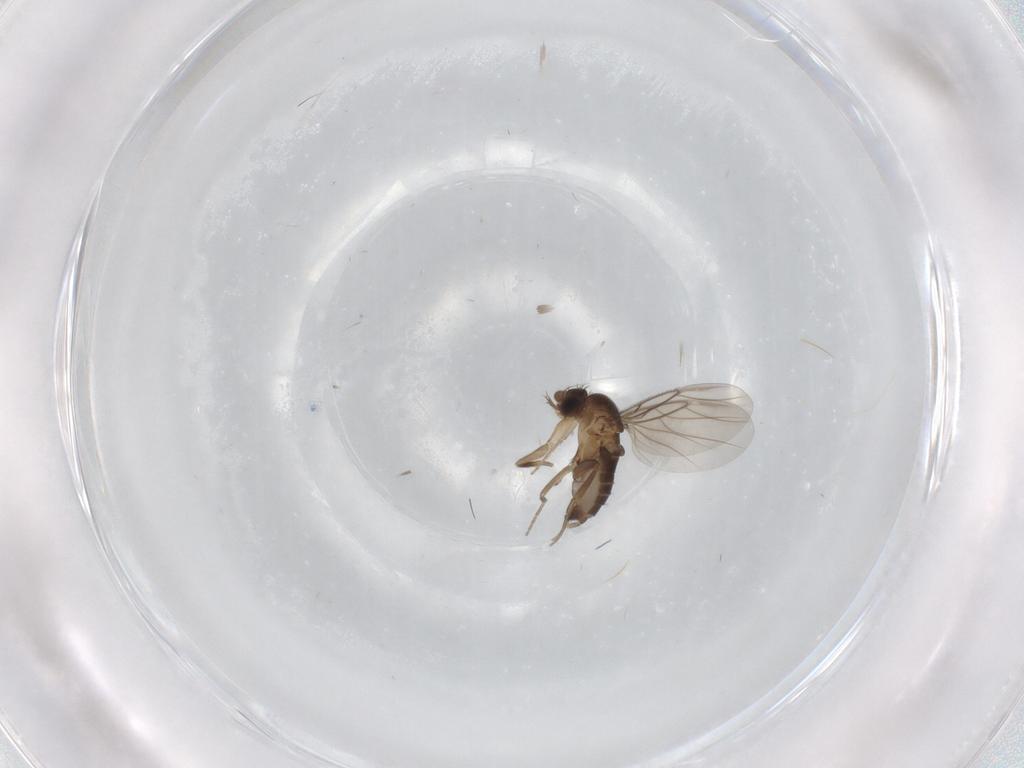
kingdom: Animalia
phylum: Arthropoda
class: Insecta
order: Diptera
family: Phoridae
